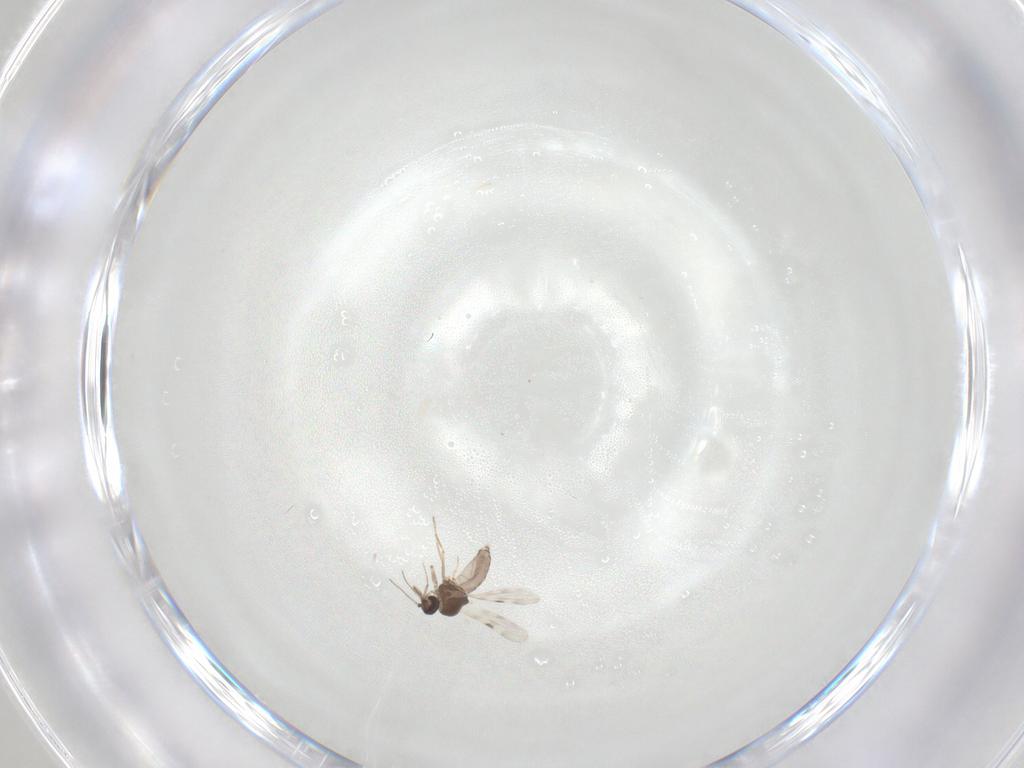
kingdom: Animalia
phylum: Arthropoda
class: Insecta
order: Diptera
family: Psychodidae
